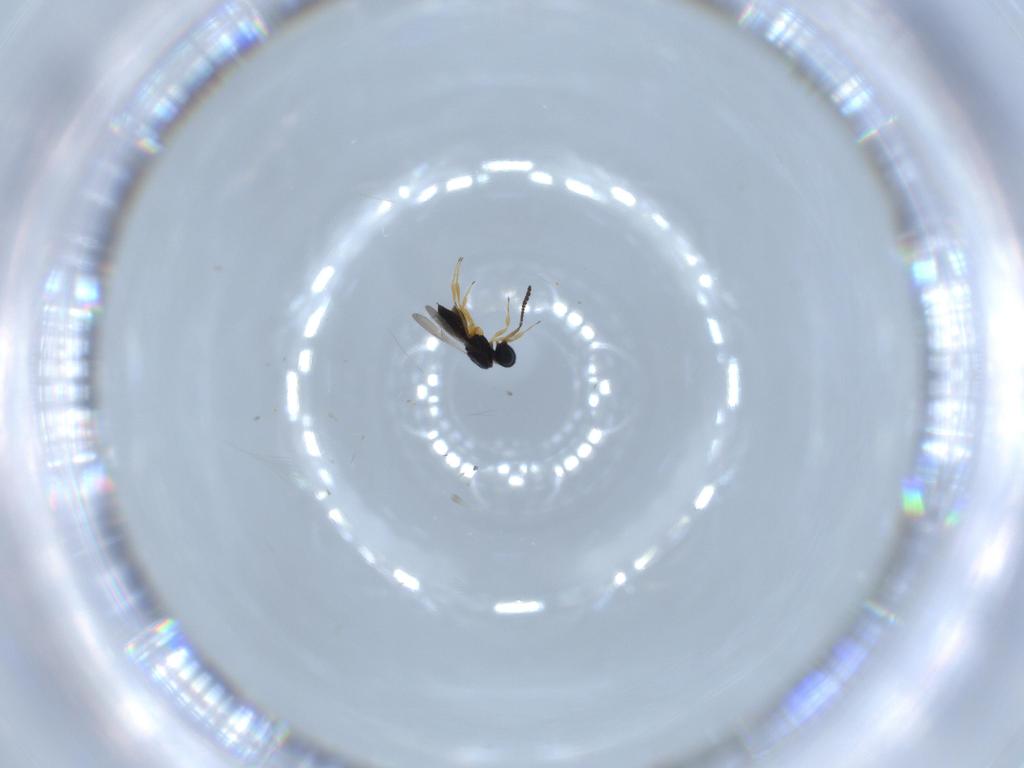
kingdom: Animalia
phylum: Arthropoda
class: Insecta
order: Hymenoptera
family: Scelionidae
